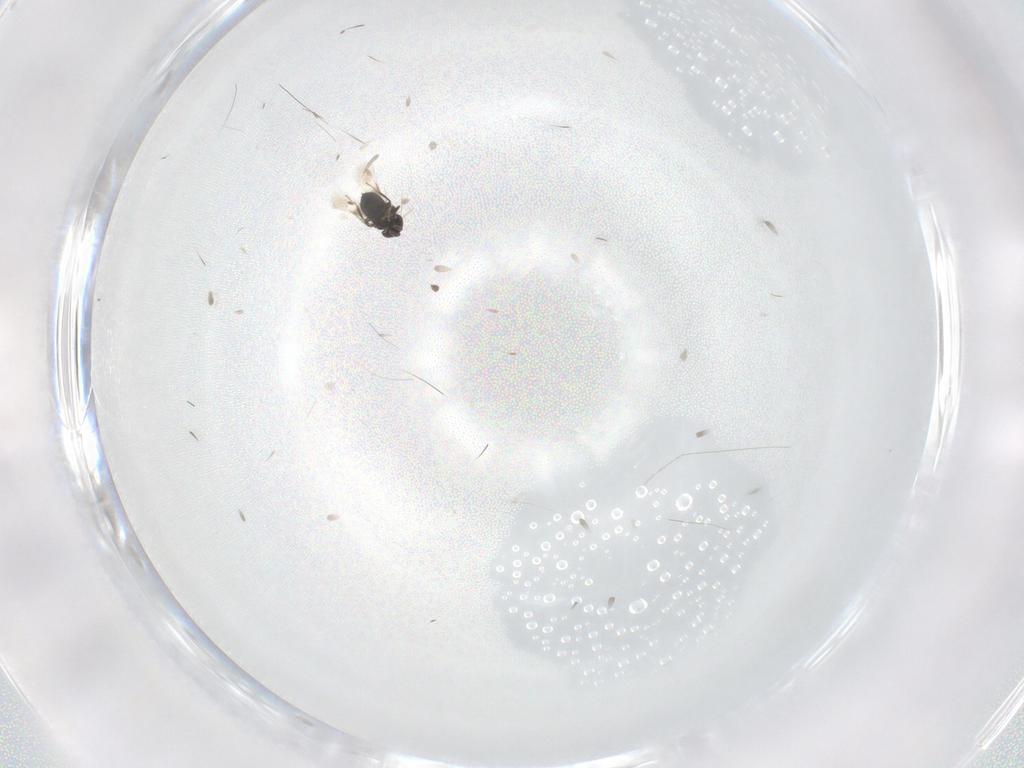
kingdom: Animalia
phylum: Arthropoda
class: Insecta
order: Hymenoptera
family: Signiphoridae
